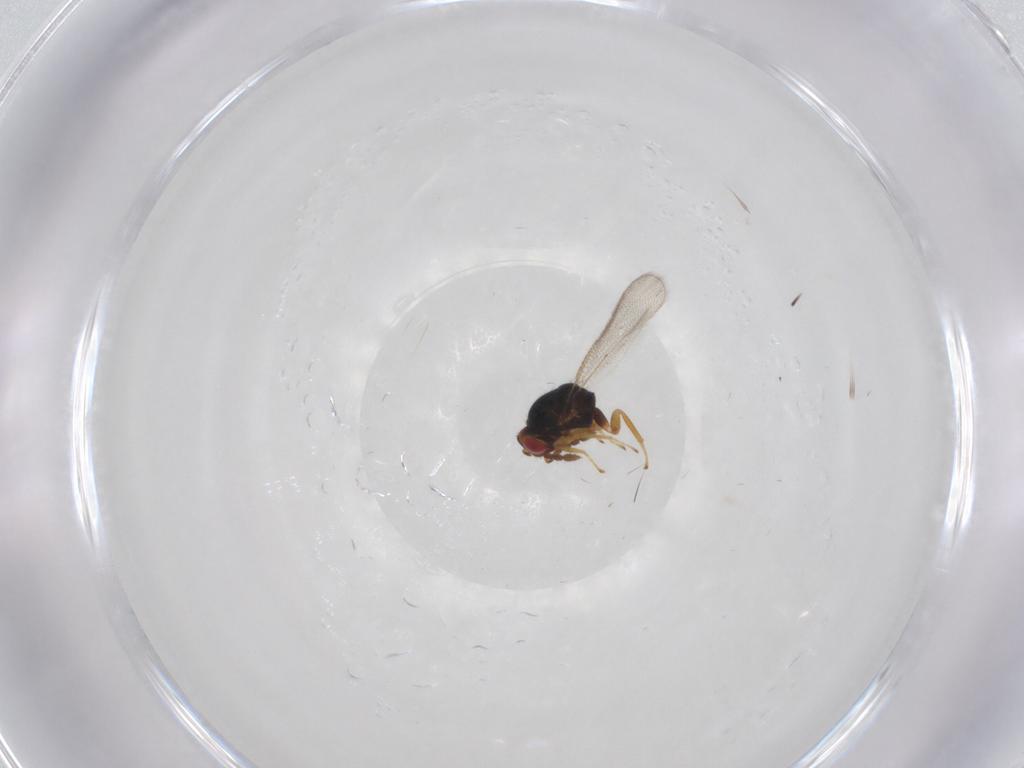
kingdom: Animalia
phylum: Arthropoda
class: Insecta
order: Hymenoptera
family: Eulophidae
